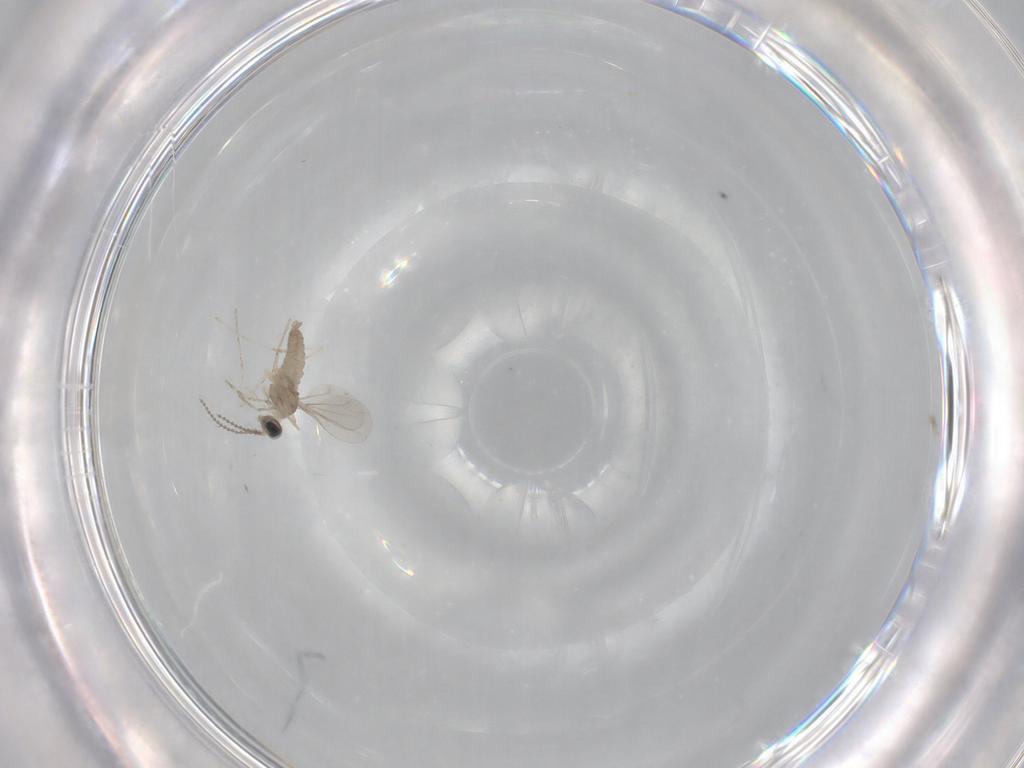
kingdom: Animalia
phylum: Arthropoda
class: Insecta
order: Diptera
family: Cecidomyiidae
